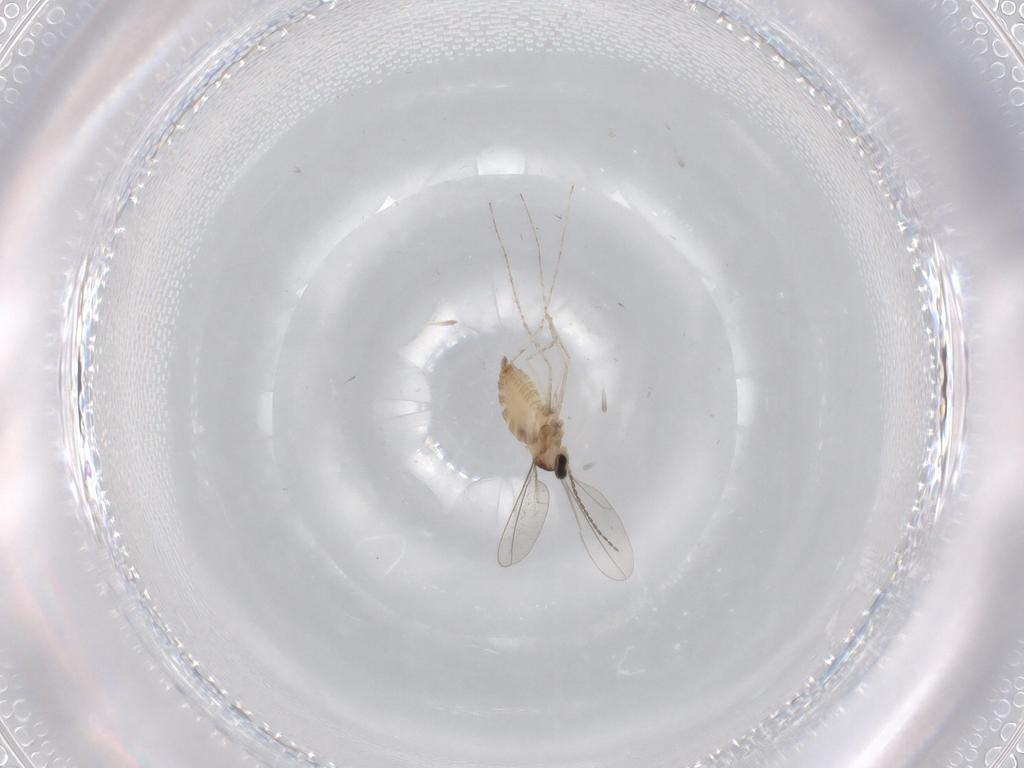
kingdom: Animalia
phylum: Arthropoda
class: Insecta
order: Diptera
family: Cecidomyiidae
